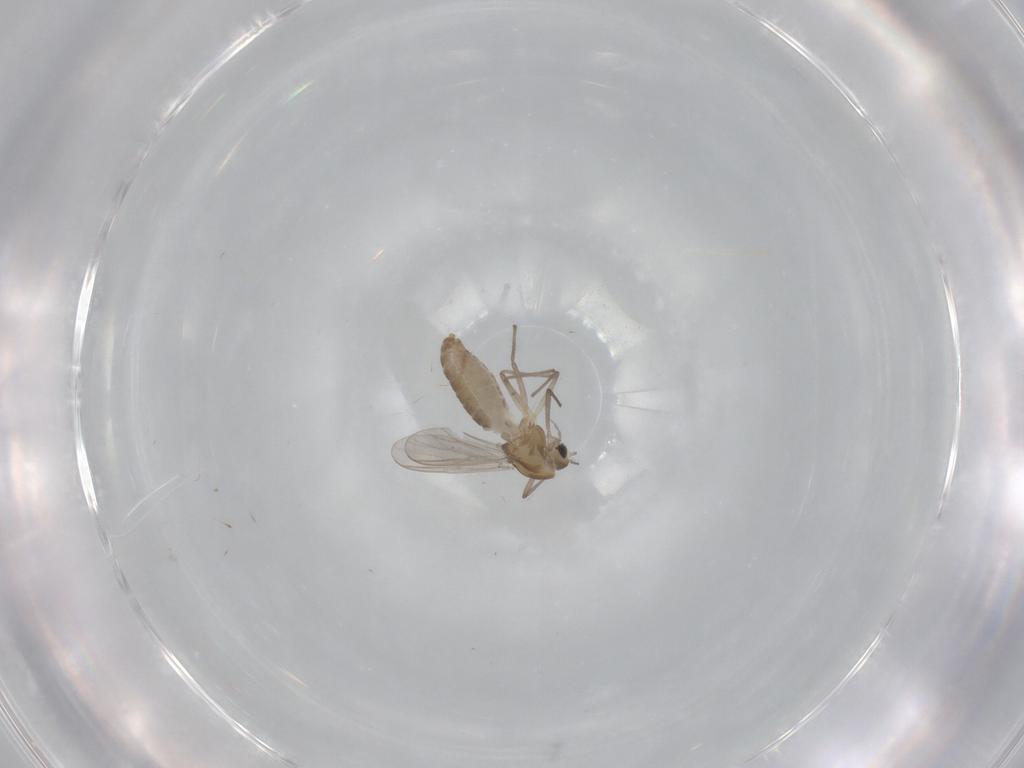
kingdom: Animalia
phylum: Arthropoda
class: Insecta
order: Diptera
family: Chironomidae
